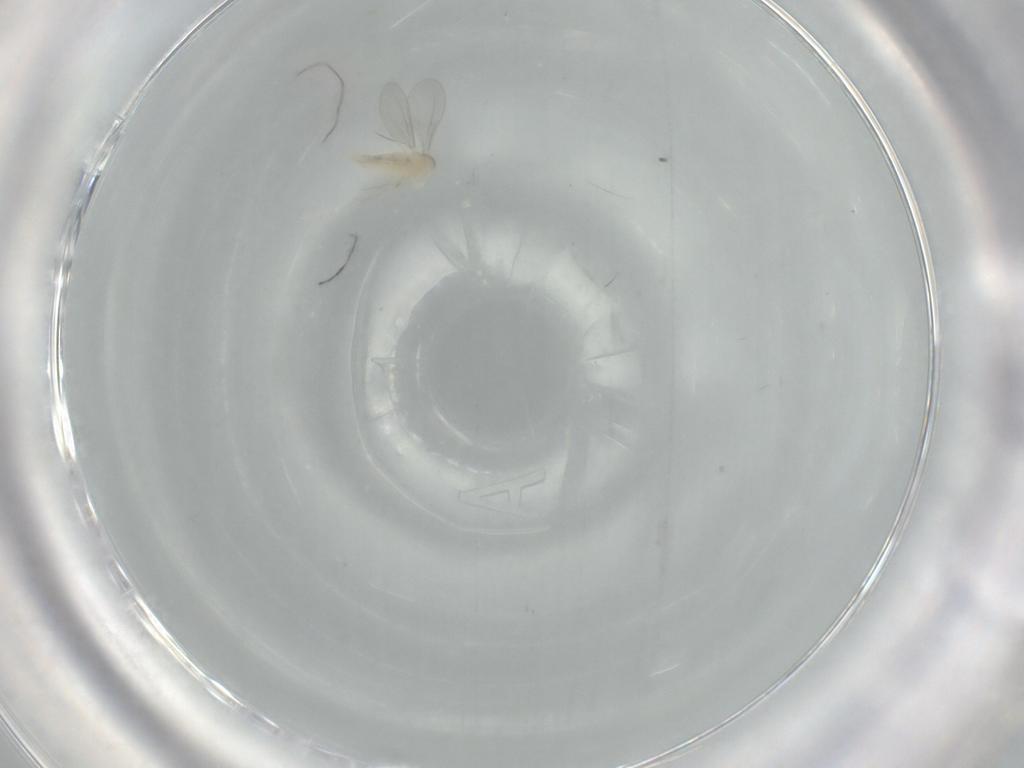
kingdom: Animalia
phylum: Arthropoda
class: Insecta
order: Diptera
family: Cecidomyiidae
